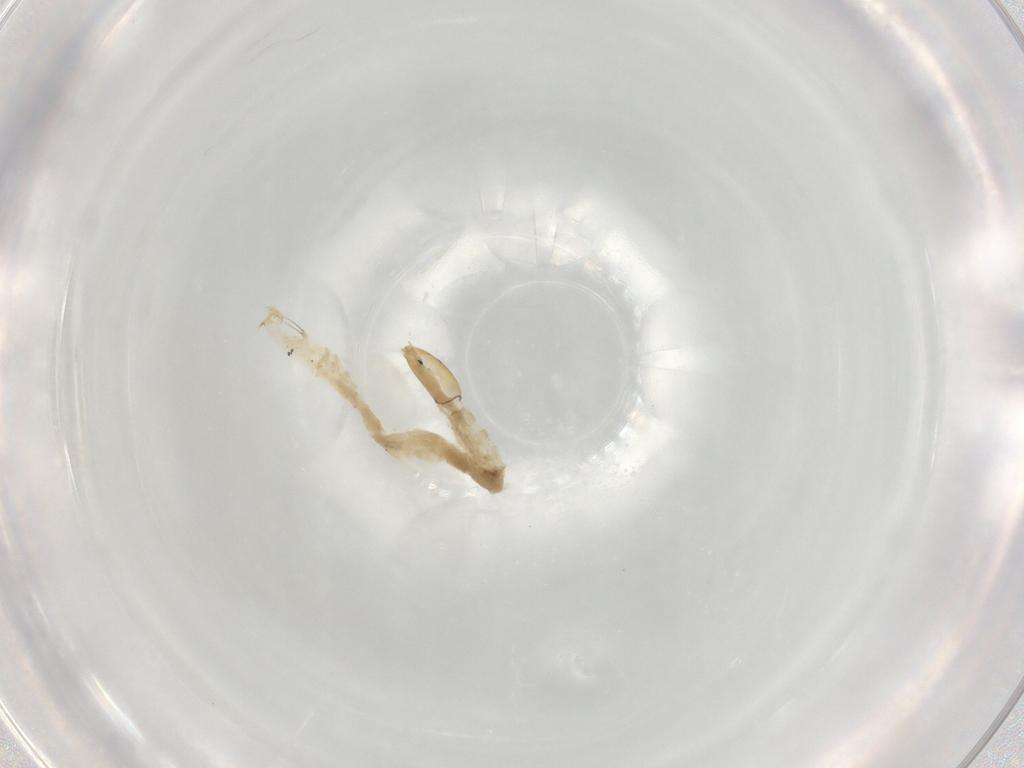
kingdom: Animalia
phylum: Arthropoda
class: Insecta
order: Diptera
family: Chironomidae
